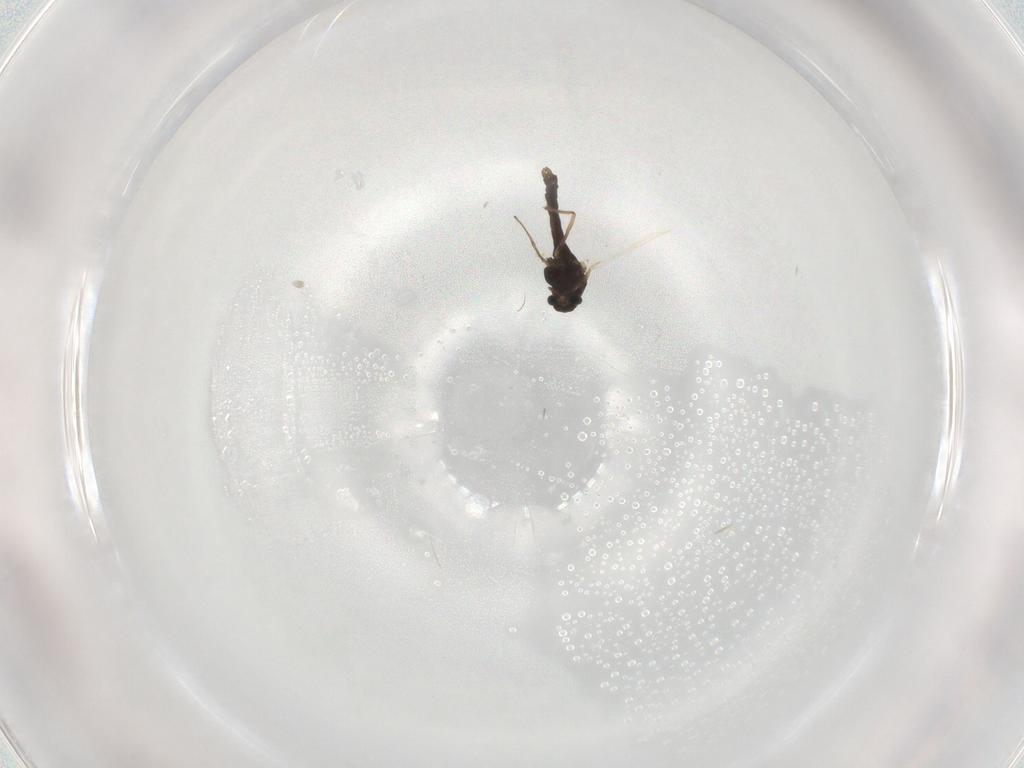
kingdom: Animalia
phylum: Arthropoda
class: Insecta
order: Diptera
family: Chironomidae
